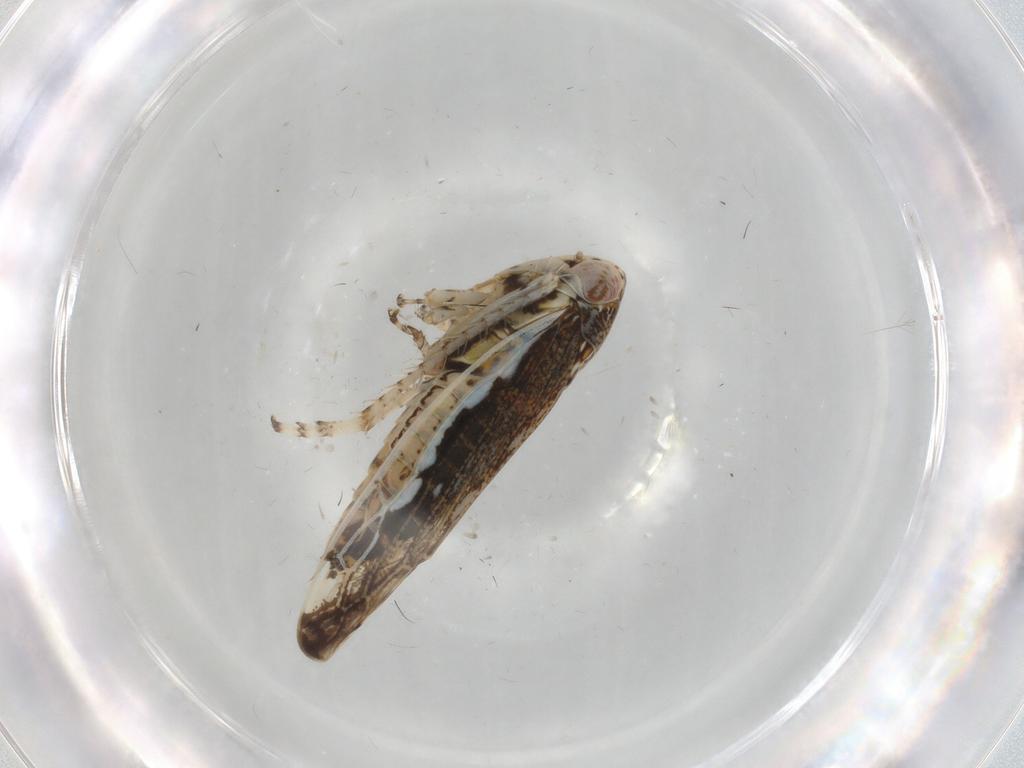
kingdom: Animalia
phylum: Arthropoda
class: Insecta
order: Hemiptera
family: Cicadellidae
